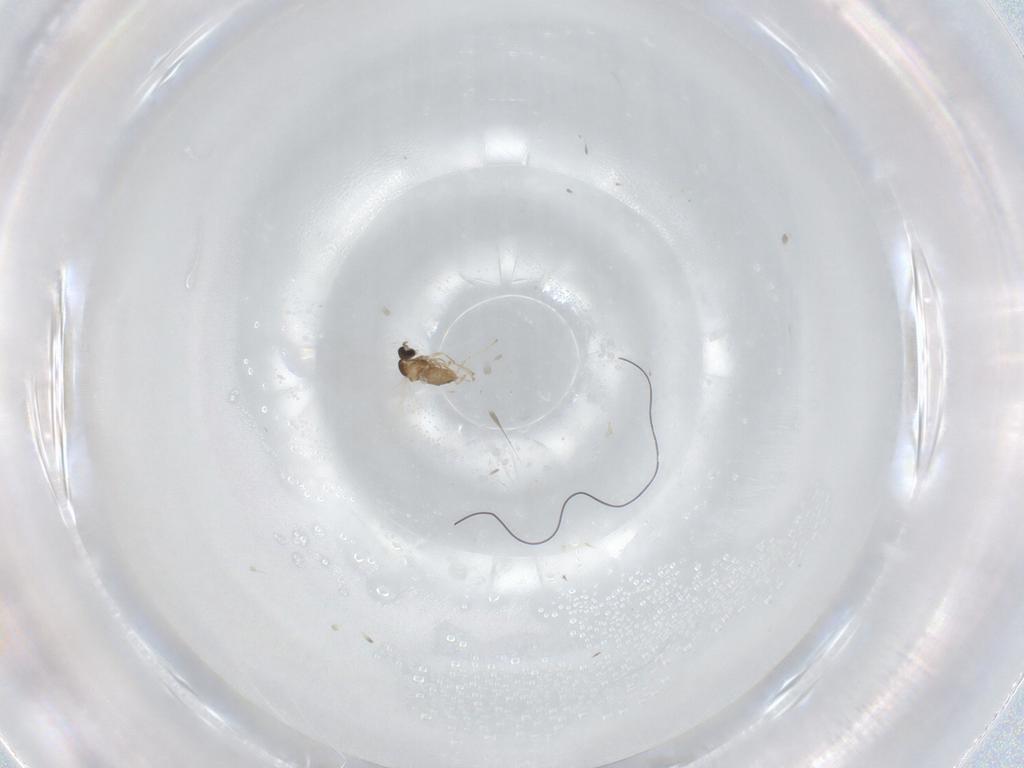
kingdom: Animalia
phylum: Arthropoda
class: Insecta
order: Diptera
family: Cecidomyiidae
